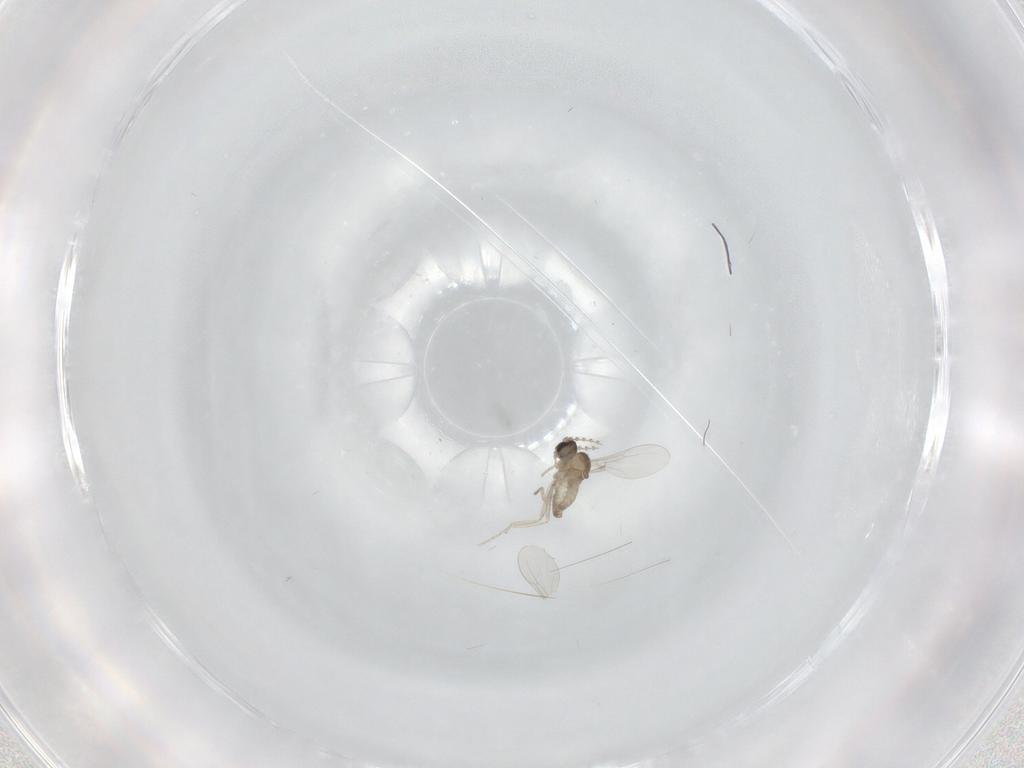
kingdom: Animalia
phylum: Arthropoda
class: Insecta
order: Diptera
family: Cecidomyiidae
